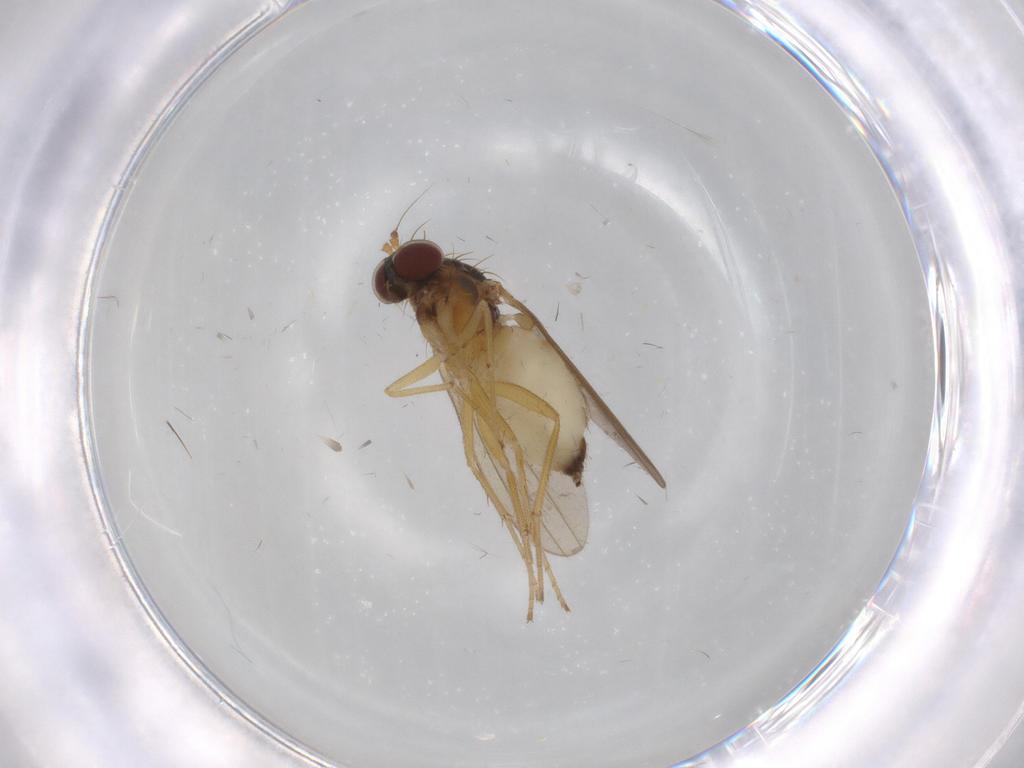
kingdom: Animalia
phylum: Arthropoda
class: Insecta
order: Diptera
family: Dolichopodidae
